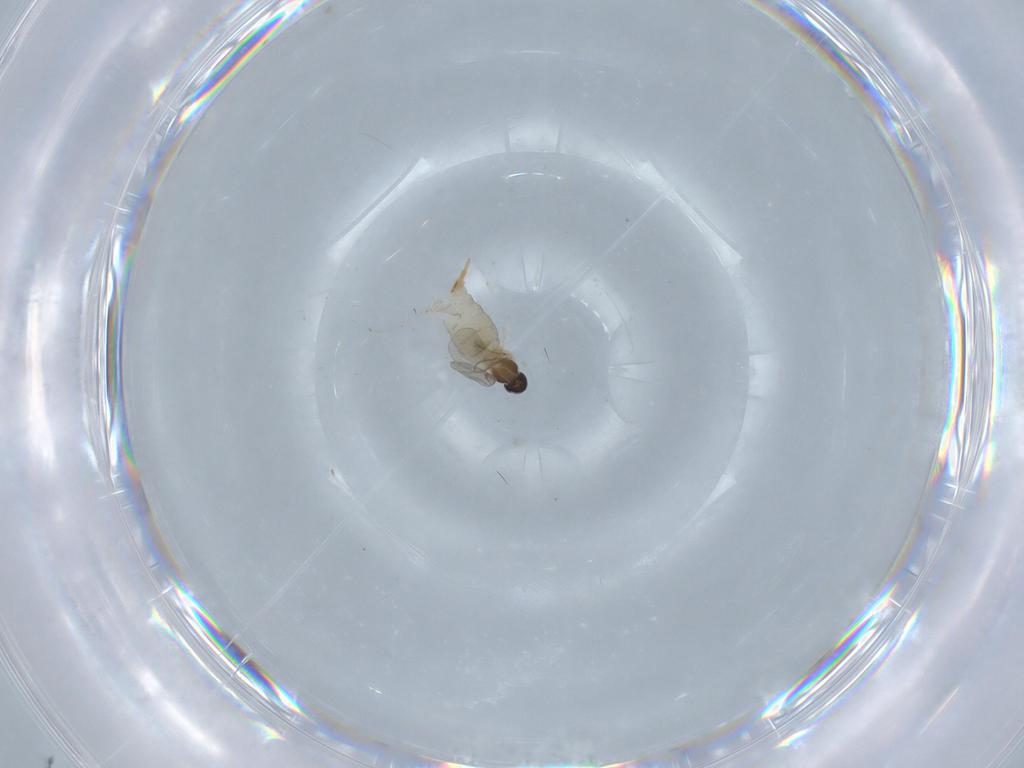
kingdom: Animalia
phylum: Arthropoda
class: Insecta
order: Diptera
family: Cecidomyiidae
